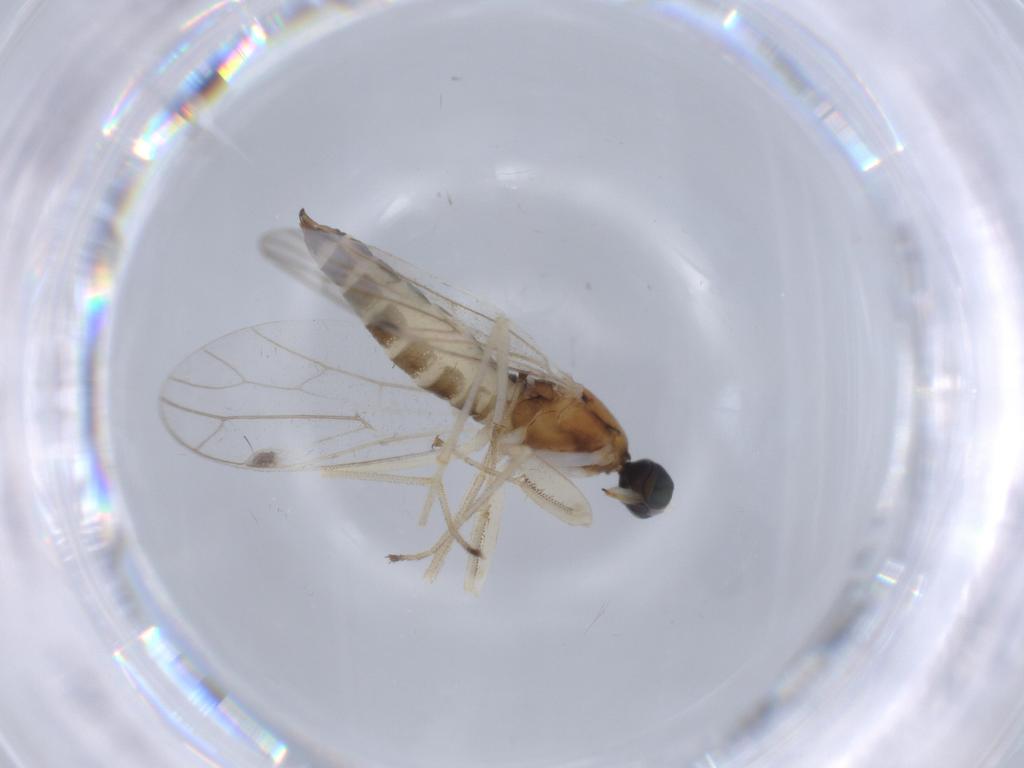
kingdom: Animalia
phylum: Arthropoda
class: Insecta
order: Diptera
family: Empididae
